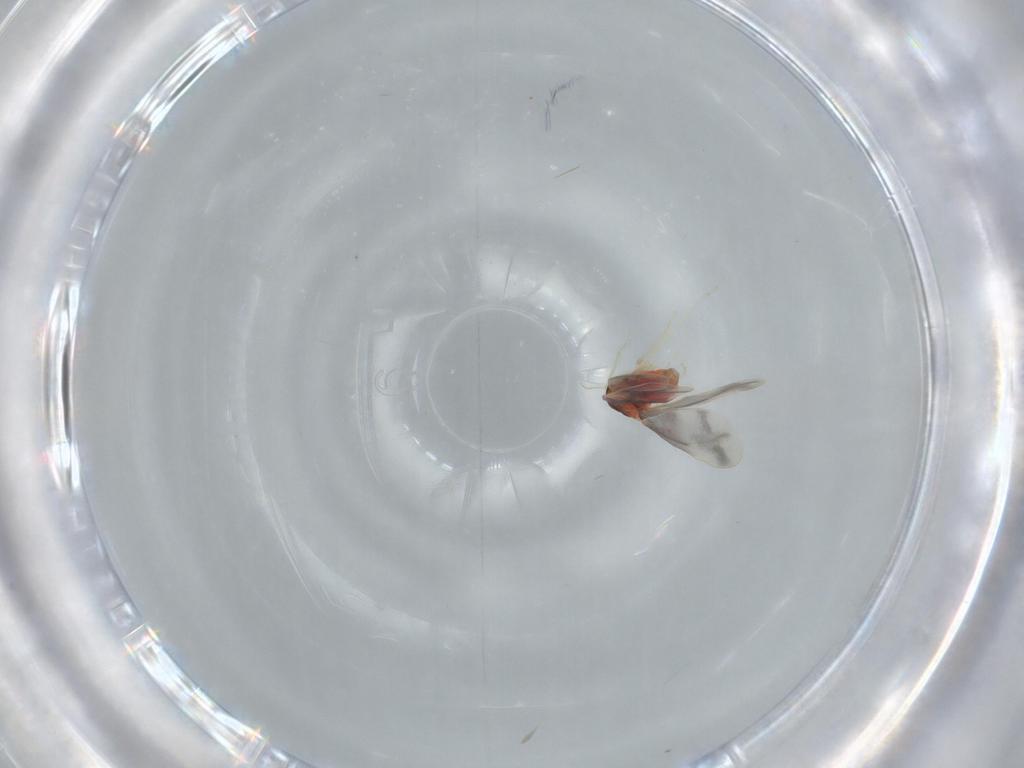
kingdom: Animalia
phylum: Arthropoda
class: Insecta
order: Hemiptera
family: Aleyrodidae
